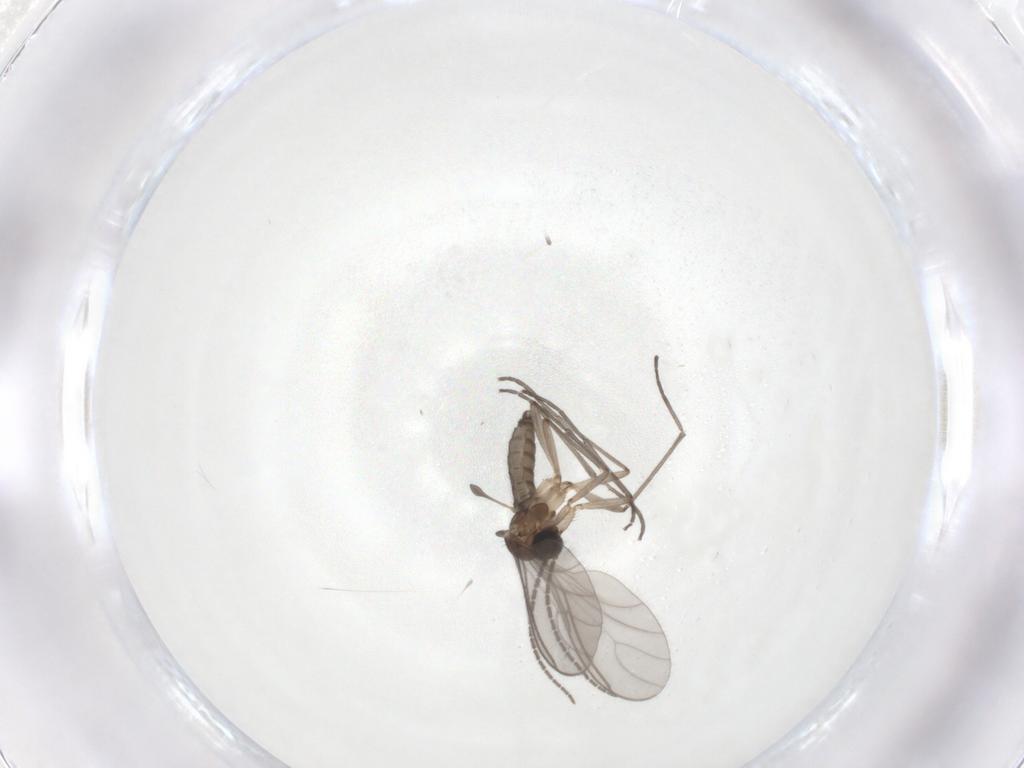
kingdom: Animalia
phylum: Arthropoda
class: Insecta
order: Diptera
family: Sciaridae
